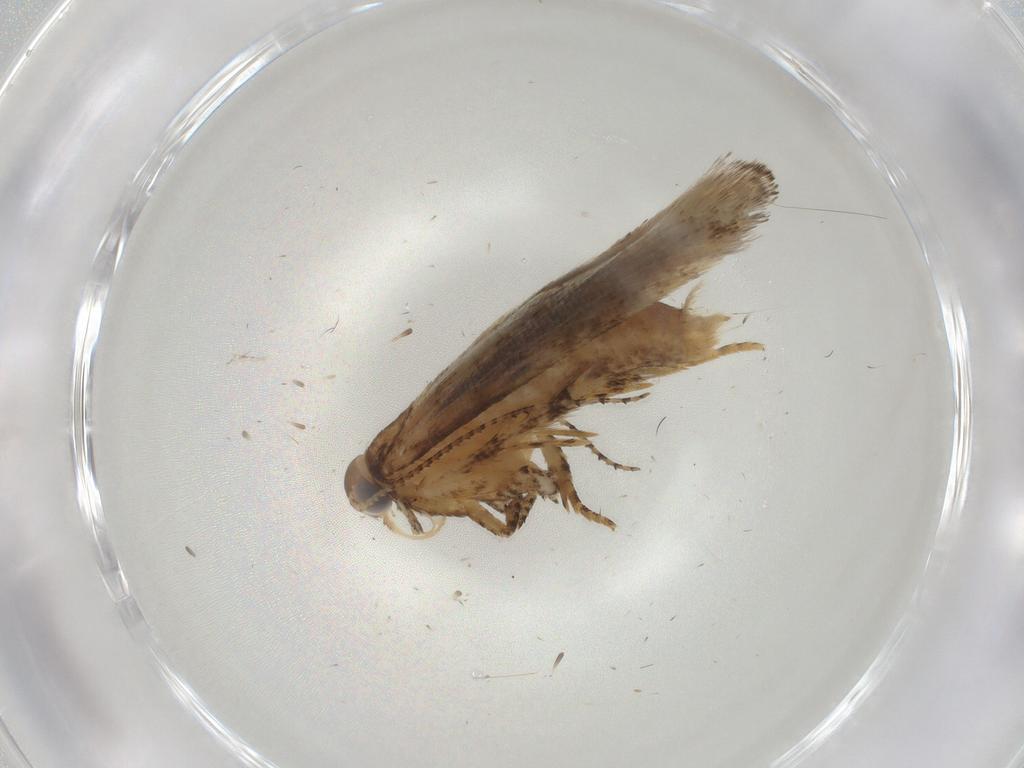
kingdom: Animalia
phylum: Arthropoda
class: Insecta
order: Lepidoptera
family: Gelechiidae
